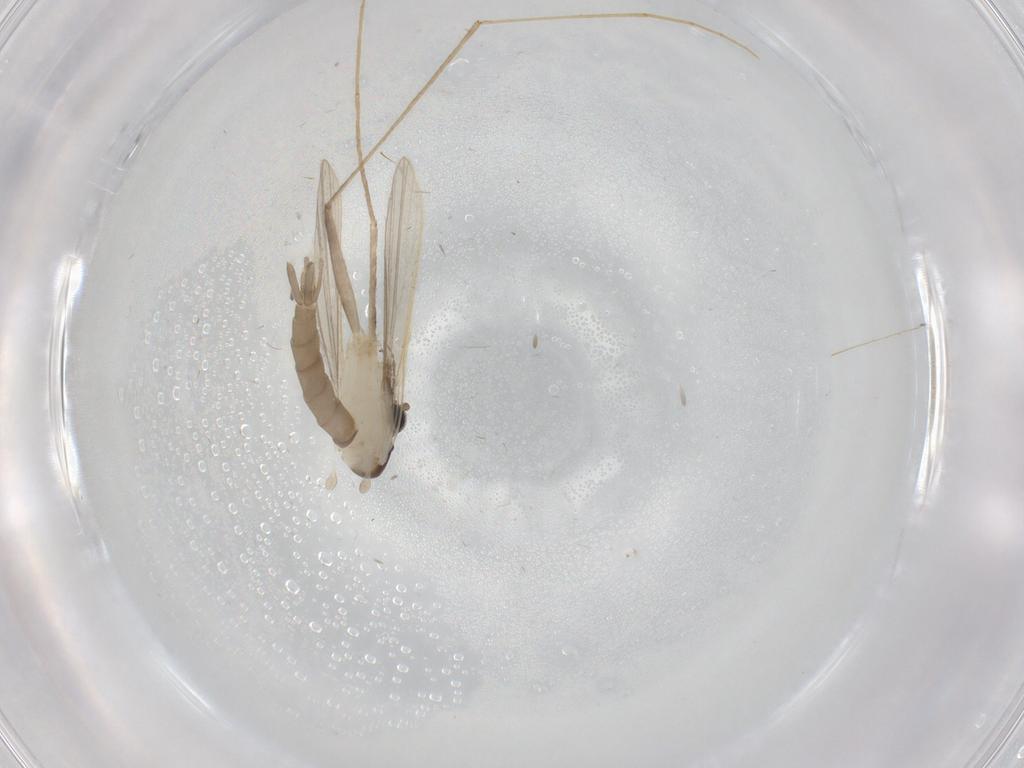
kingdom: Animalia
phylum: Arthropoda
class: Insecta
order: Diptera
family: Psychodidae
